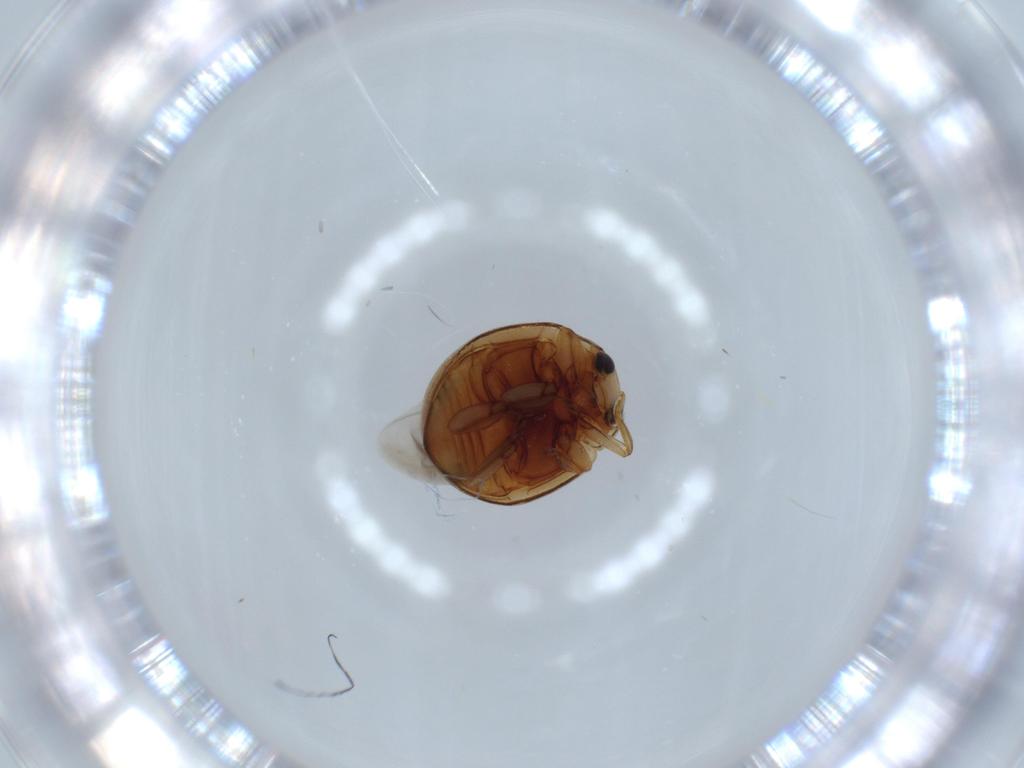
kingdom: Animalia
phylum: Arthropoda
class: Insecta
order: Coleoptera
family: Coccinellidae
